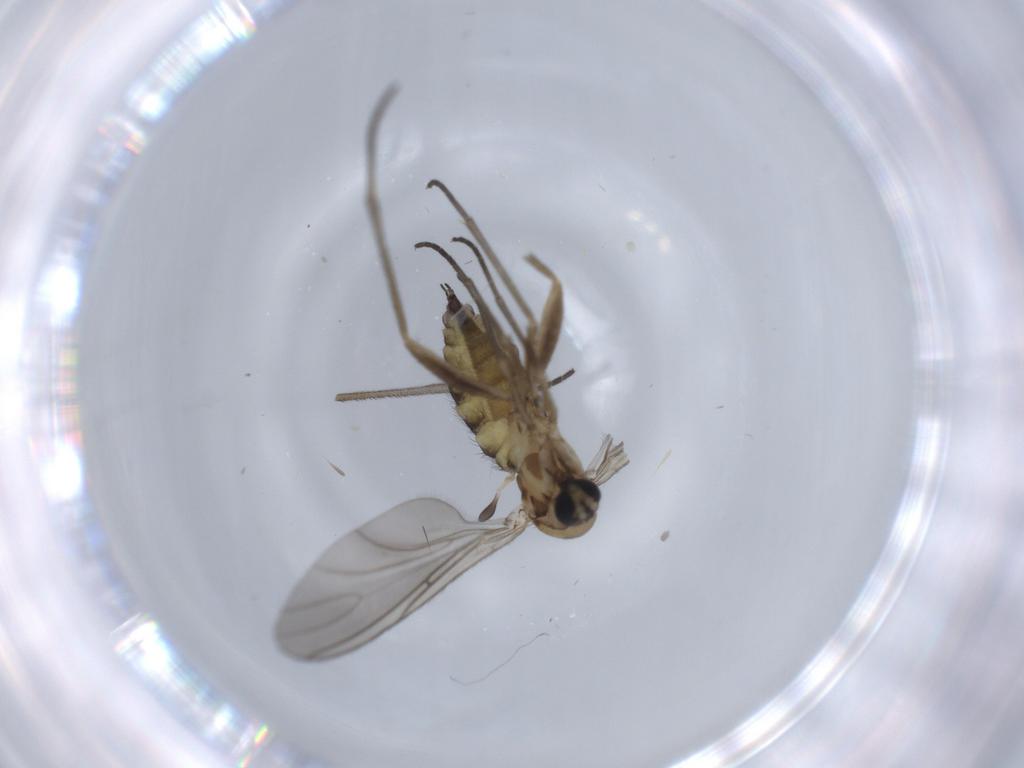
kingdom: Animalia
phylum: Arthropoda
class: Insecta
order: Diptera
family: Sciaridae
